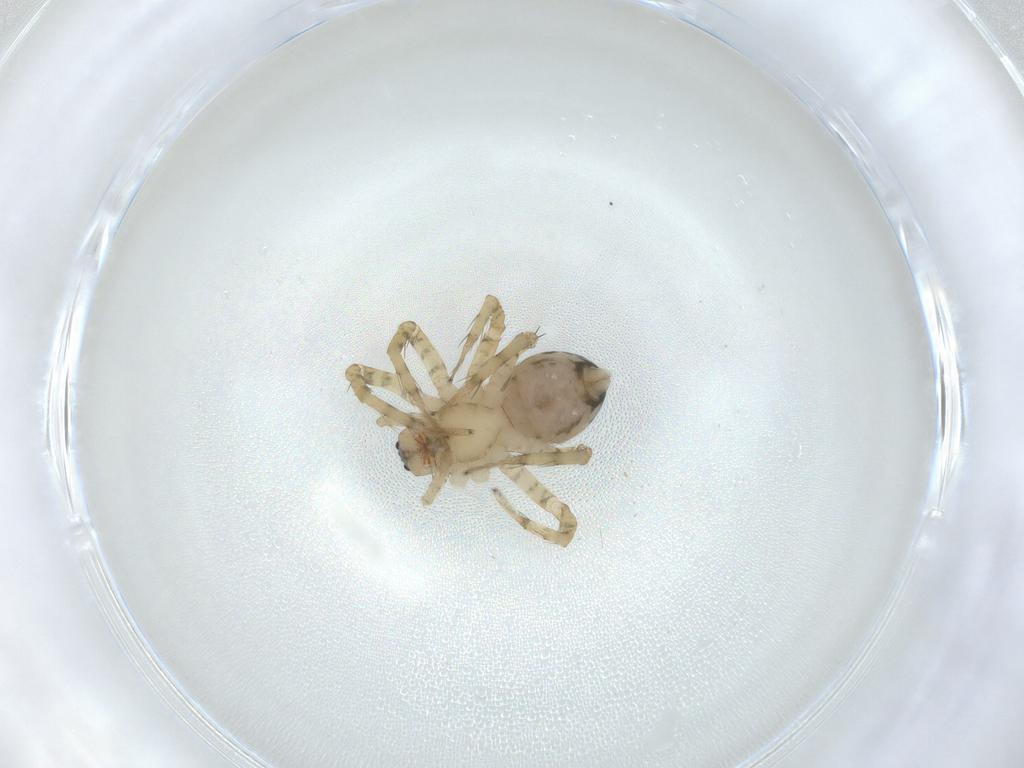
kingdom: Animalia
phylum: Arthropoda
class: Arachnida
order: Araneae
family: Amaurobiidae
